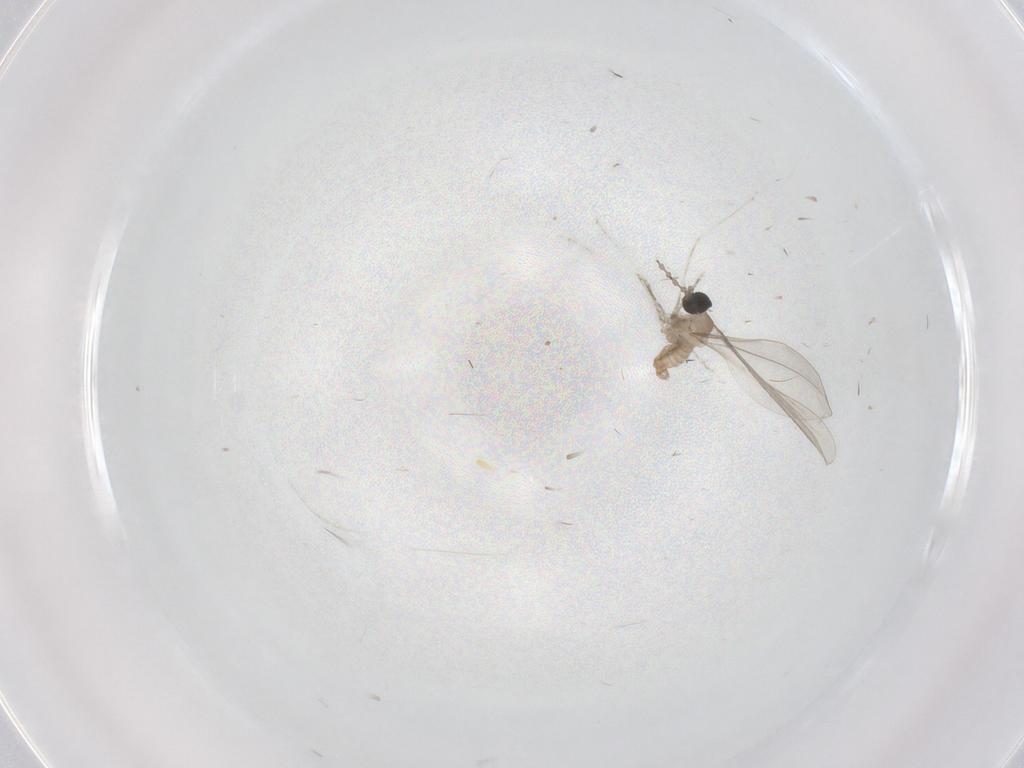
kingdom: Animalia
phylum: Arthropoda
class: Insecta
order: Diptera
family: Cecidomyiidae
